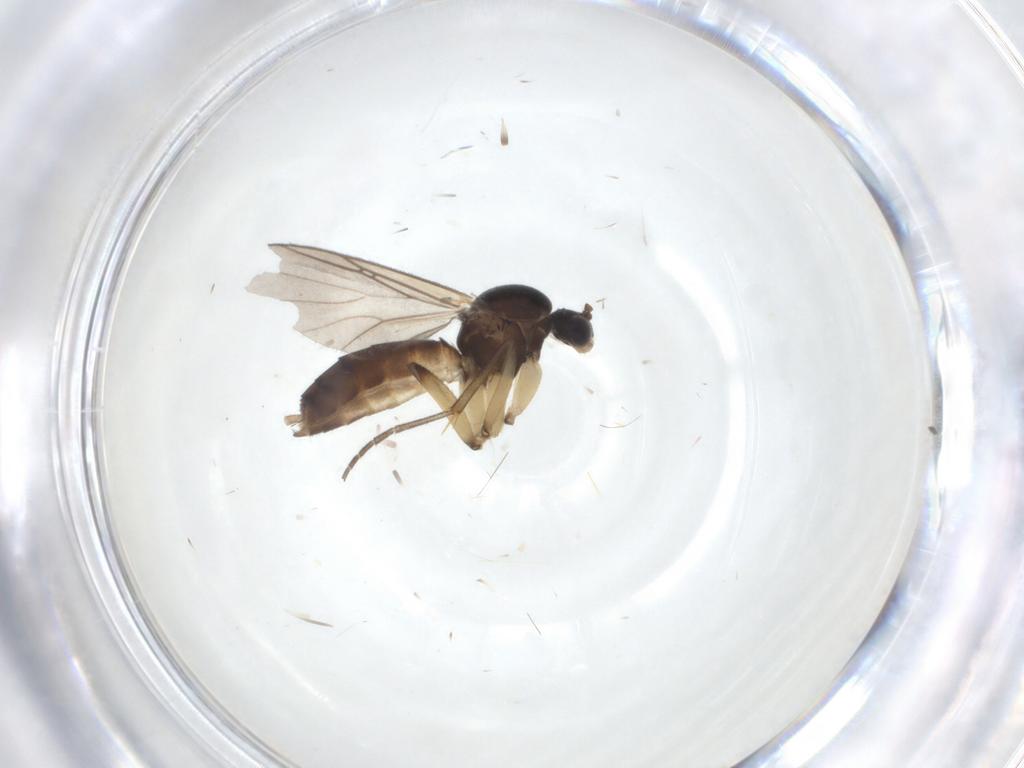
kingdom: Animalia
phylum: Arthropoda
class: Insecta
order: Diptera
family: Mycetophilidae
